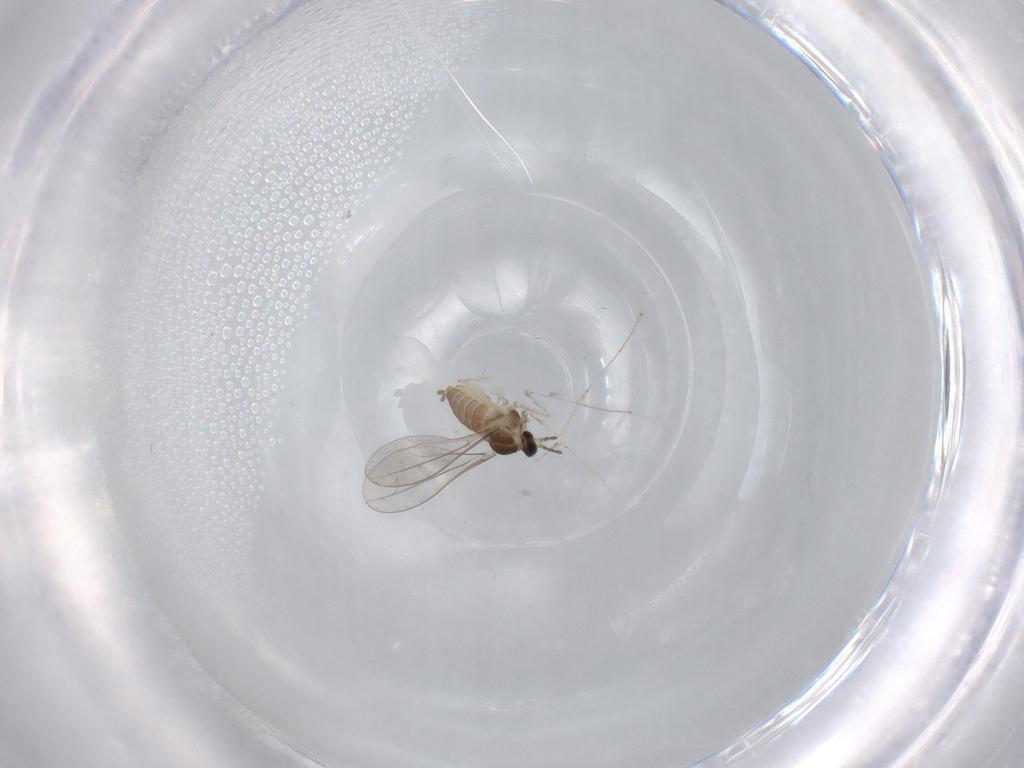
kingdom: Animalia
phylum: Arthropoda
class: Insecta
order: Diptera
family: Cecidomyiidae
